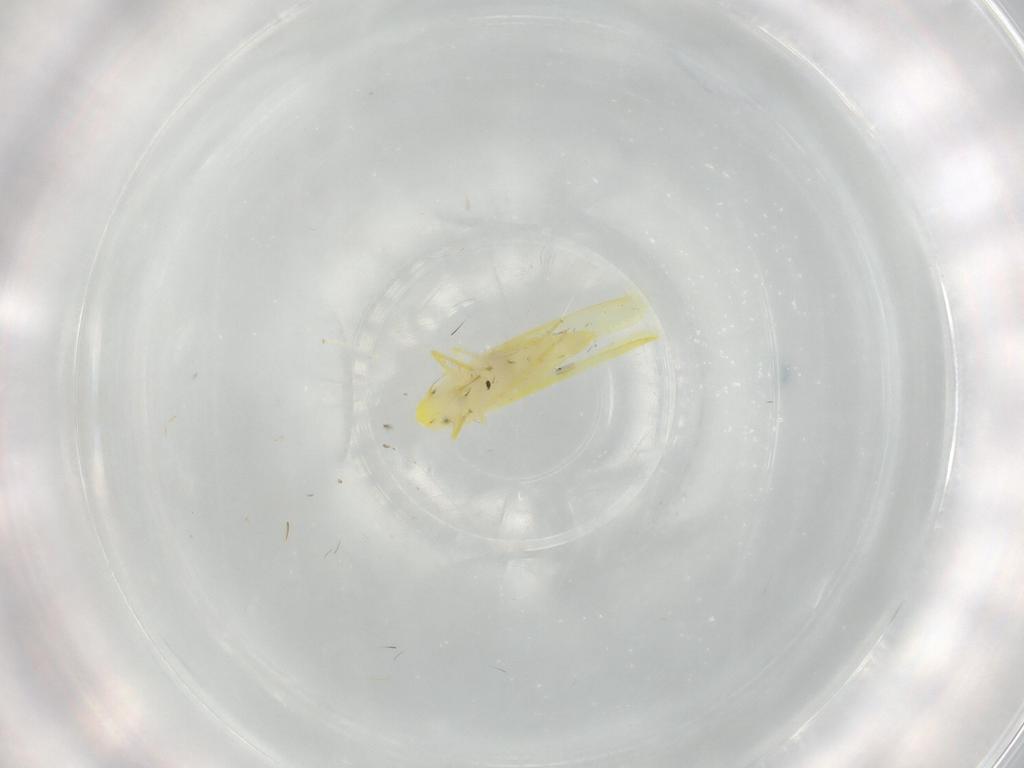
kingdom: Animalia
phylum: Arthropoda
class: Insecta
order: Hemiptera
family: Cicadellidae
